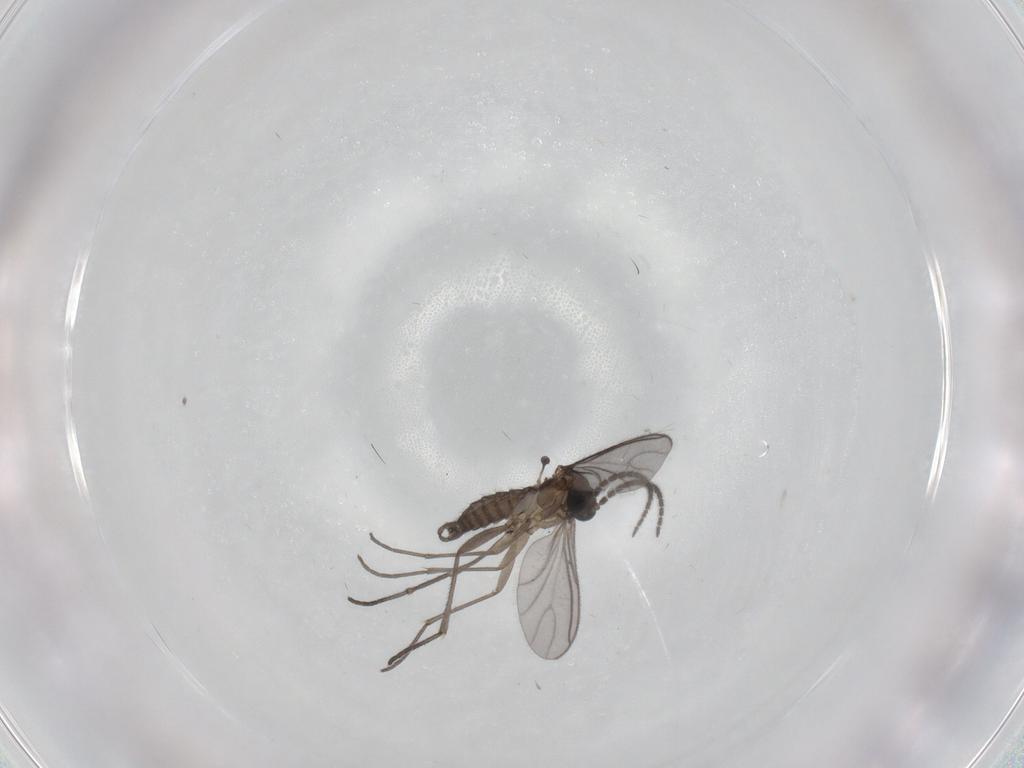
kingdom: Animalia
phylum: Arthropoda
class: Insecta
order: Diptera
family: Sciaridae
